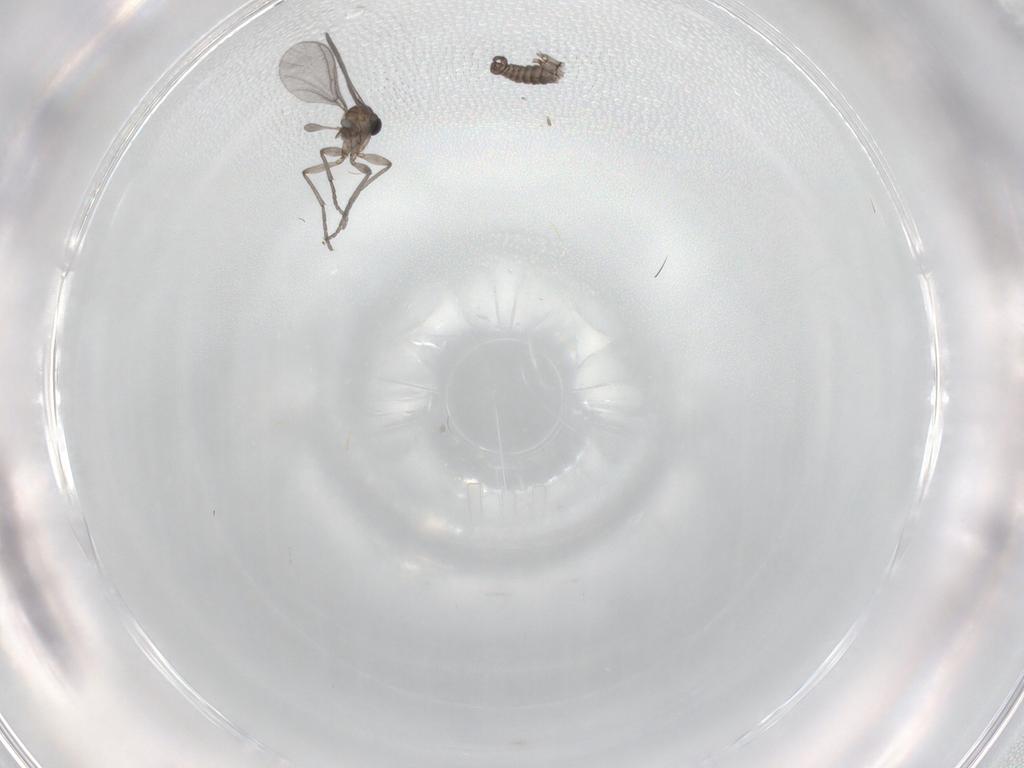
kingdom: Animalia
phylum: Arthropoda
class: Insecta
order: Diptera
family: Sciaridae
